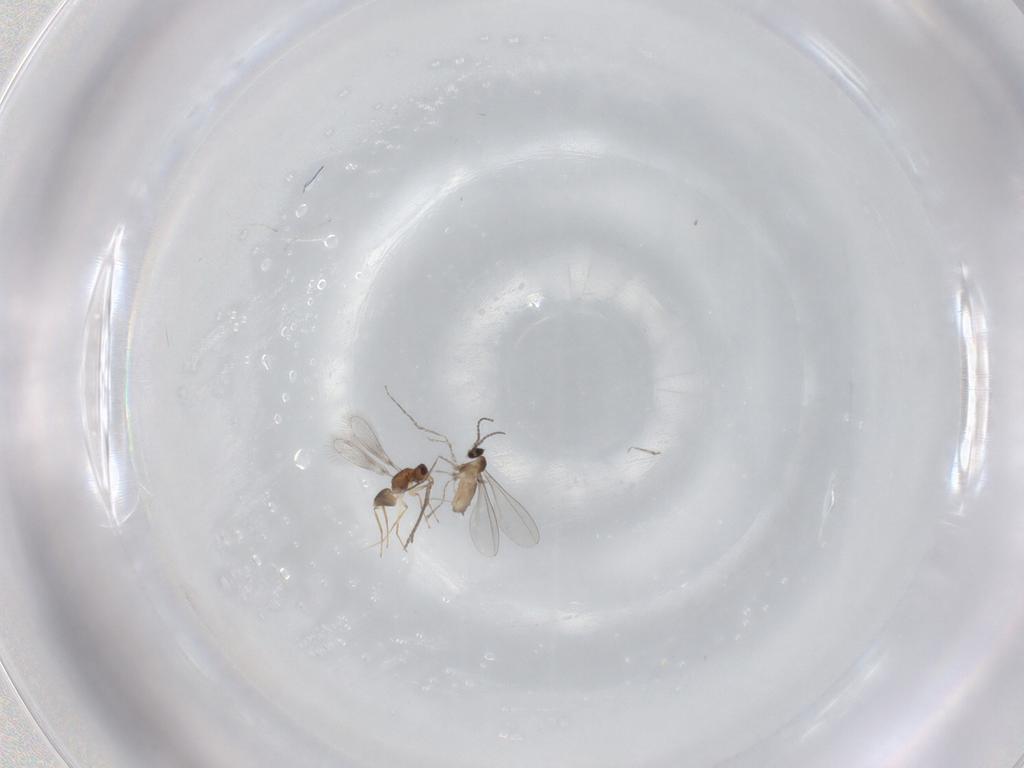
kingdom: Animalia
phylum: Arthropoda
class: Insecta
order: Diptera
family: Cecidomyiidae
